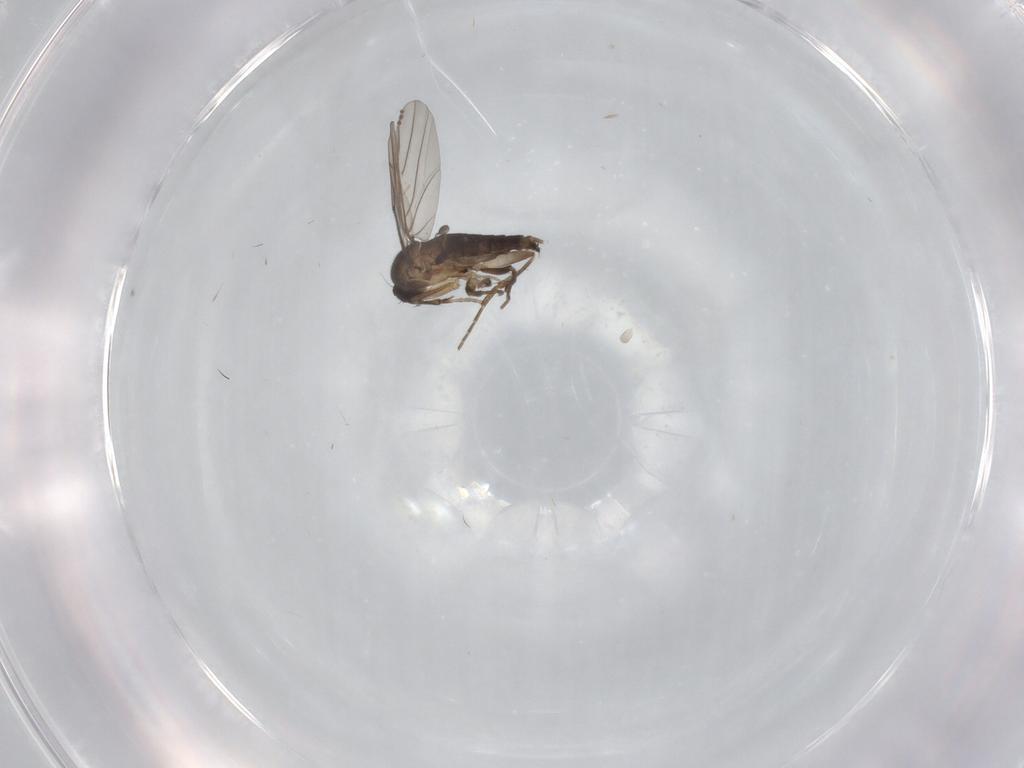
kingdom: Animalia
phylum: Arthropoda
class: Insecta
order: Diptera
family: Phoridae
